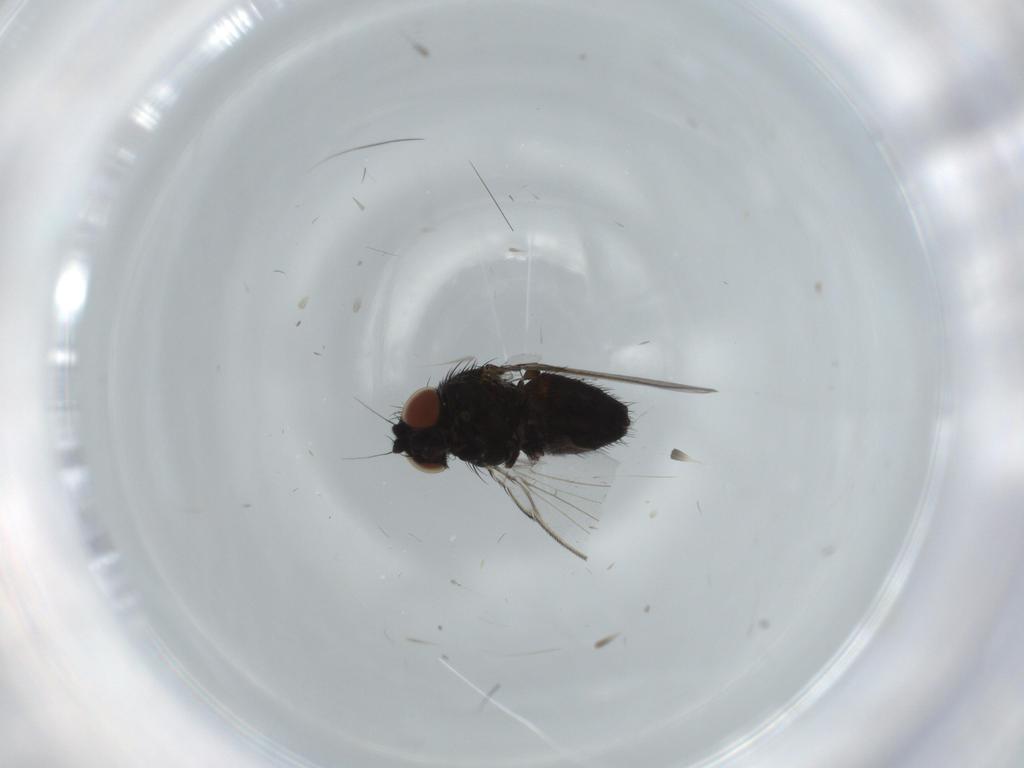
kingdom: Animalia
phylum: Arthropoda
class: Insecta
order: Diptera
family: Milichiidae
